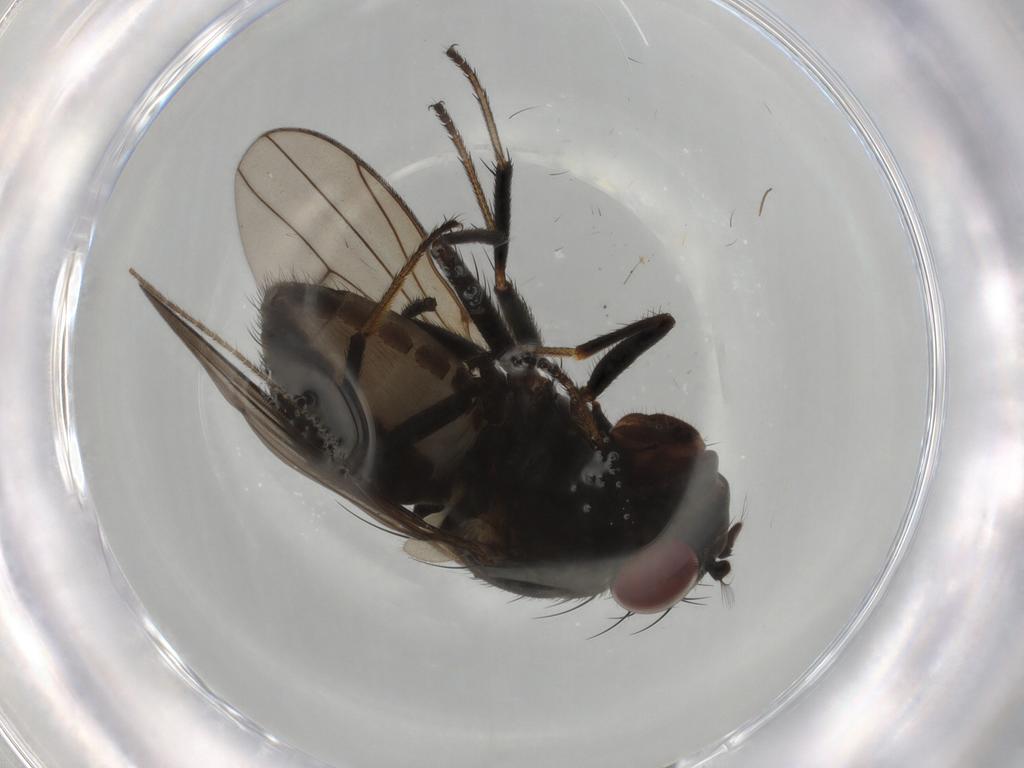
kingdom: Animalia
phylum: Arthropoda
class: Insecta
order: Diptera
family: Ephydridae
